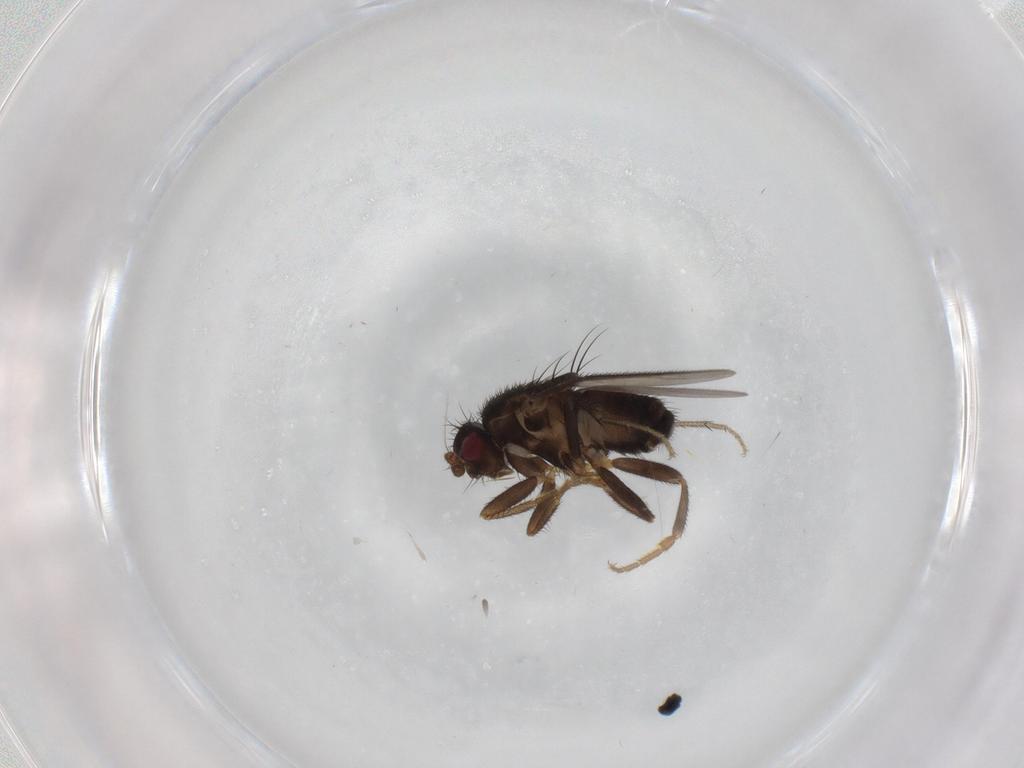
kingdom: Animalia
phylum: Arthropoda
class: Insecta
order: Diptera
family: Sphaeroceridae
